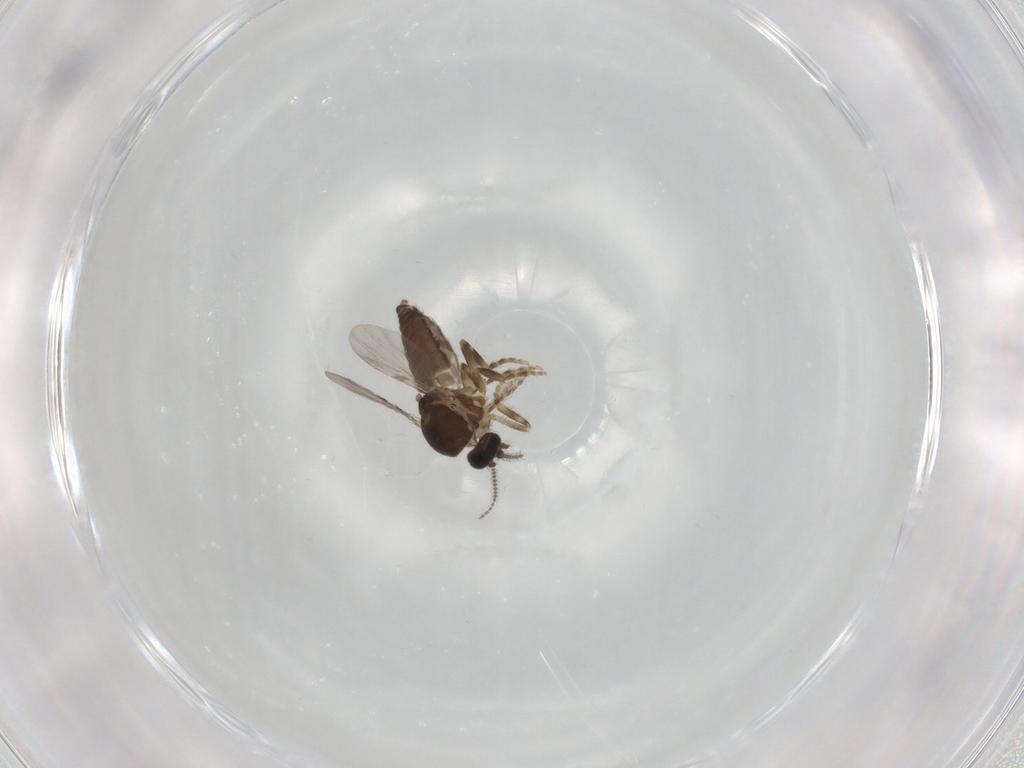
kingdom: Animalia
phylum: Arthropoda
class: Insecta
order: Diptera
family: Ceratopogonidae
